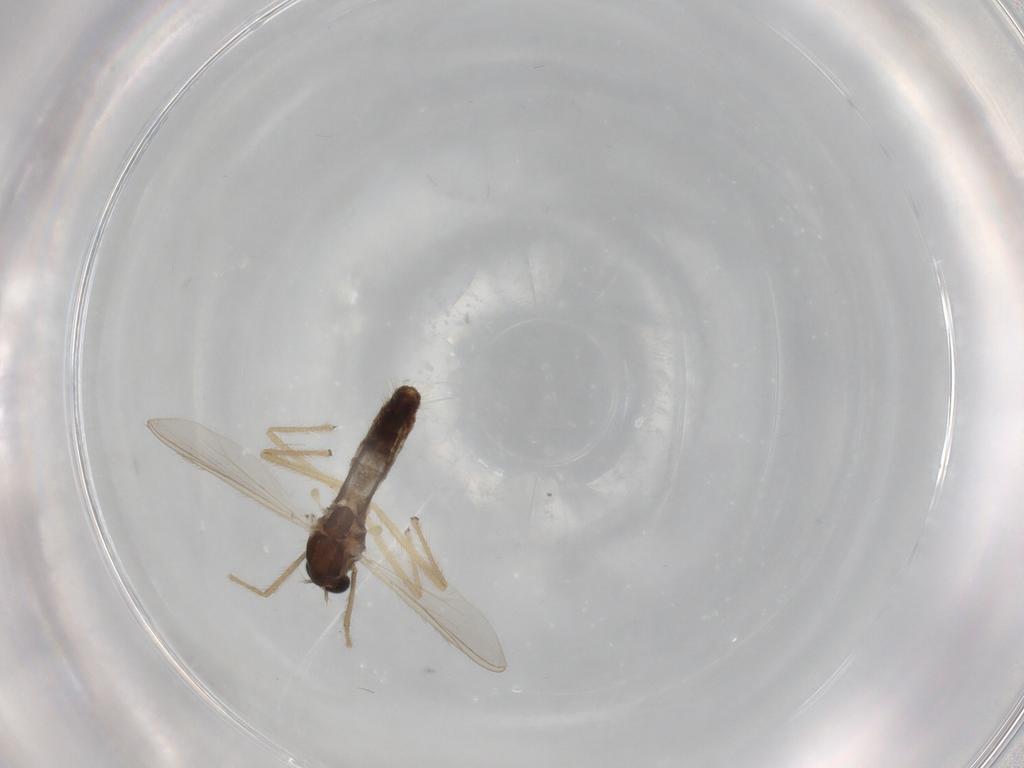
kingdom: Animalia
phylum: Arthropoda
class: Insecta
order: Diptera
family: Chironomidae
